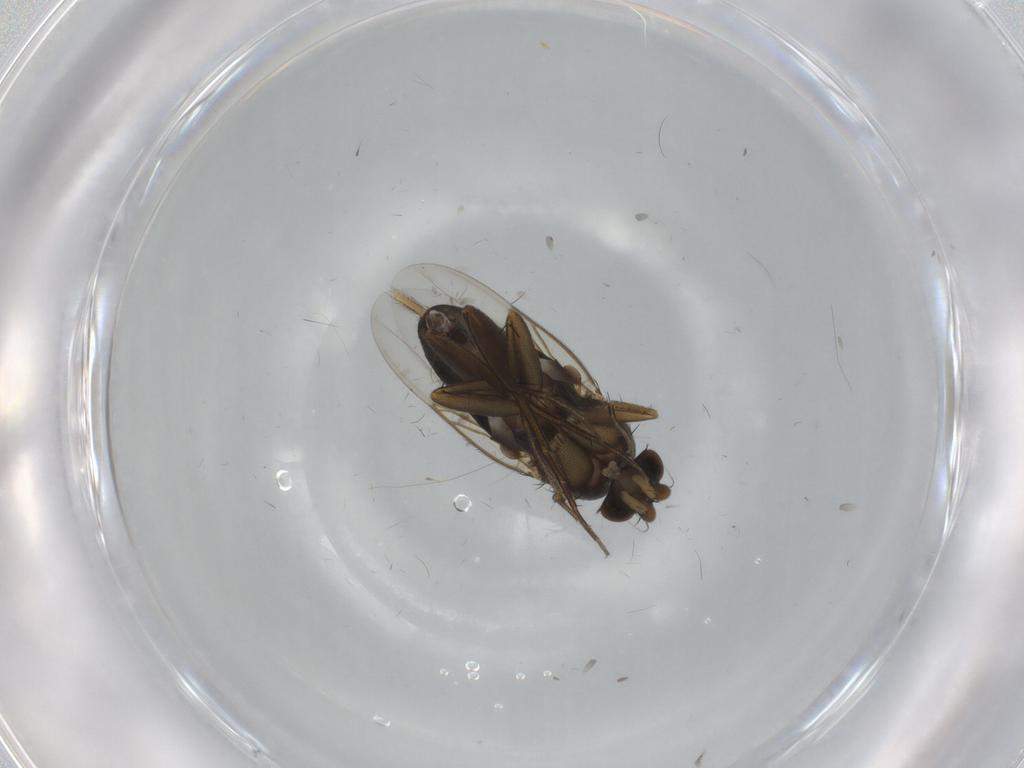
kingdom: Animalia
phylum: Arthropoda
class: Insecta
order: Diptera
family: Phoridae
